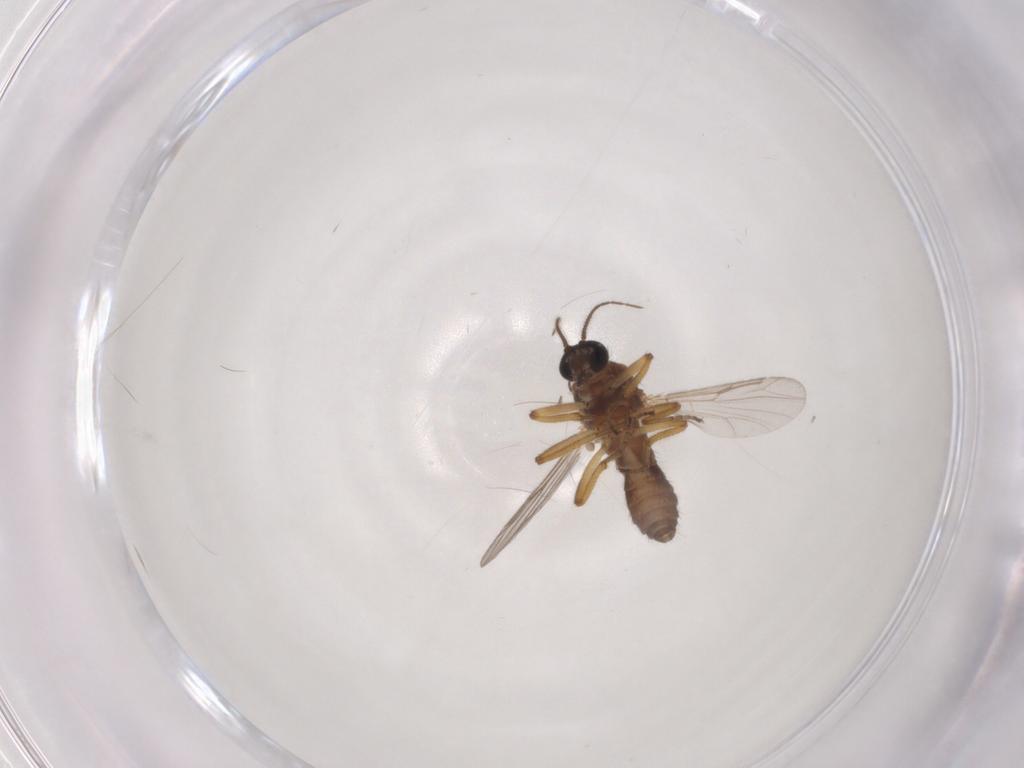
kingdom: Animalia
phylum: Arthropoda
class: Insecta
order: Diptera
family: Ceratopogonidae
